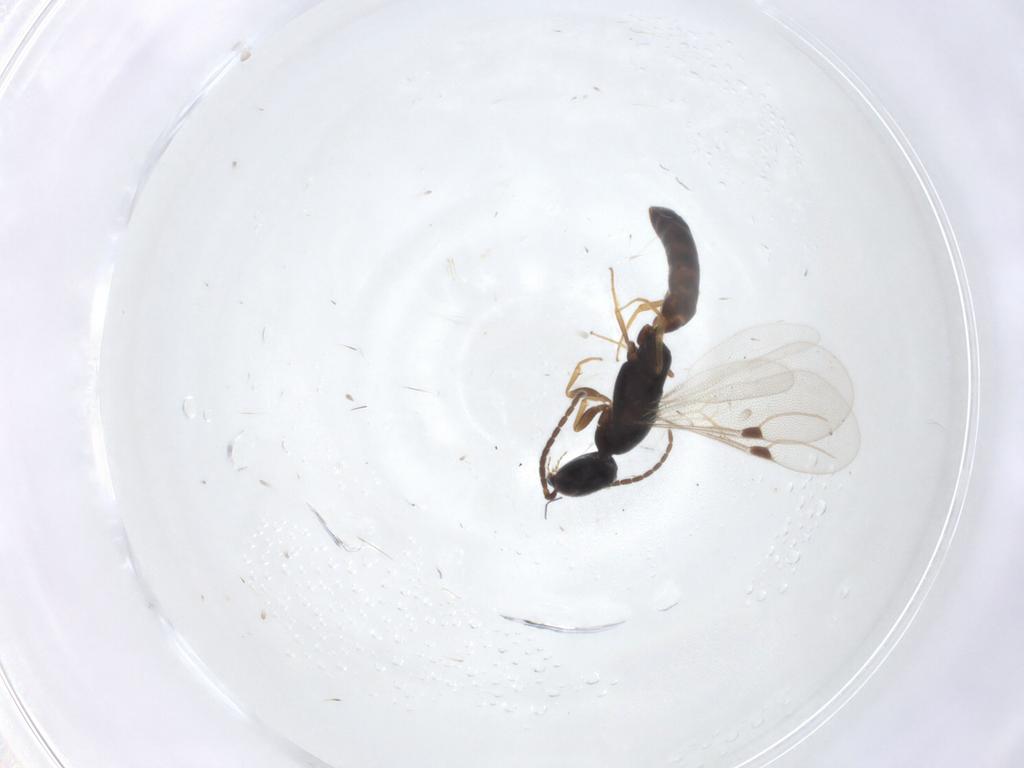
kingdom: Animalia
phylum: Arthropoda
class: Insecta
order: Hymenoptera
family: Bethylidae
